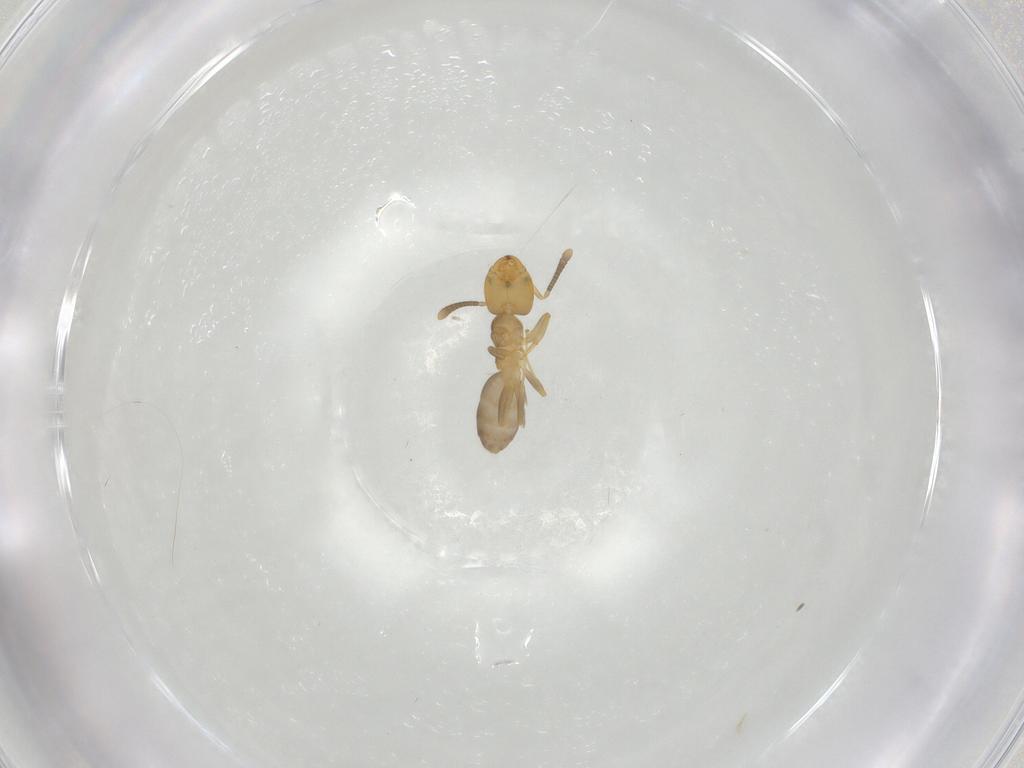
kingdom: Animalia
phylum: Arthropoda
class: Insecta
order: Hymenoptera
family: Formicidae
